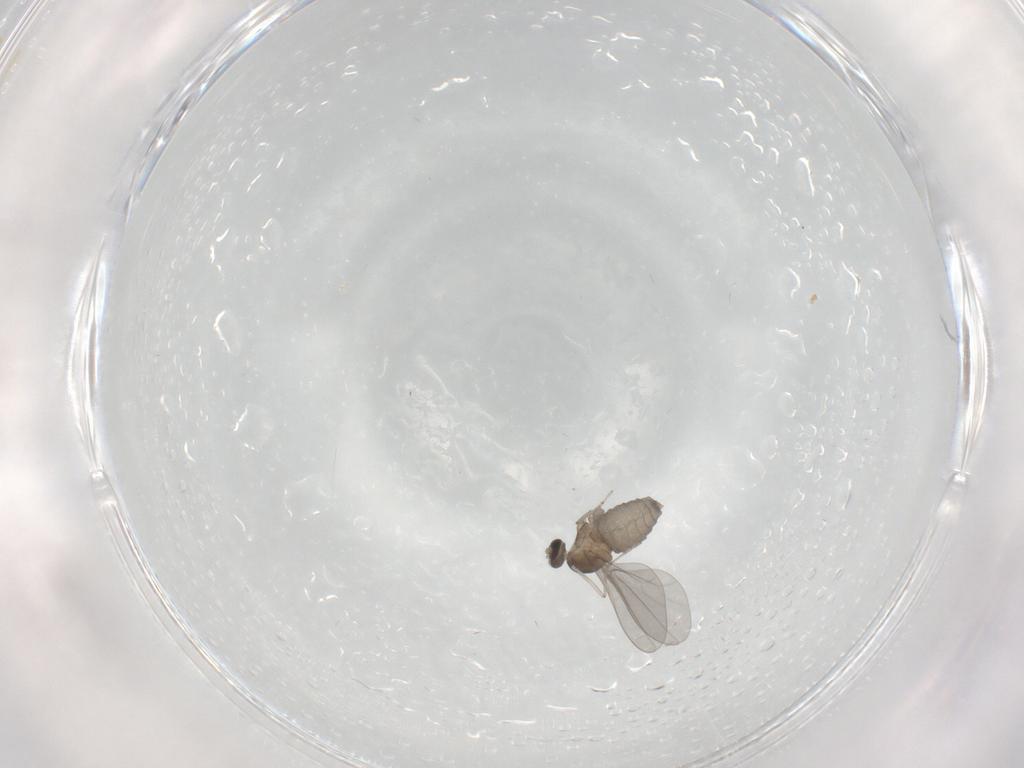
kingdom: Animalia
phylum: Arthropoda
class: Insecta
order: Diptera
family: Cecidomyiidae
